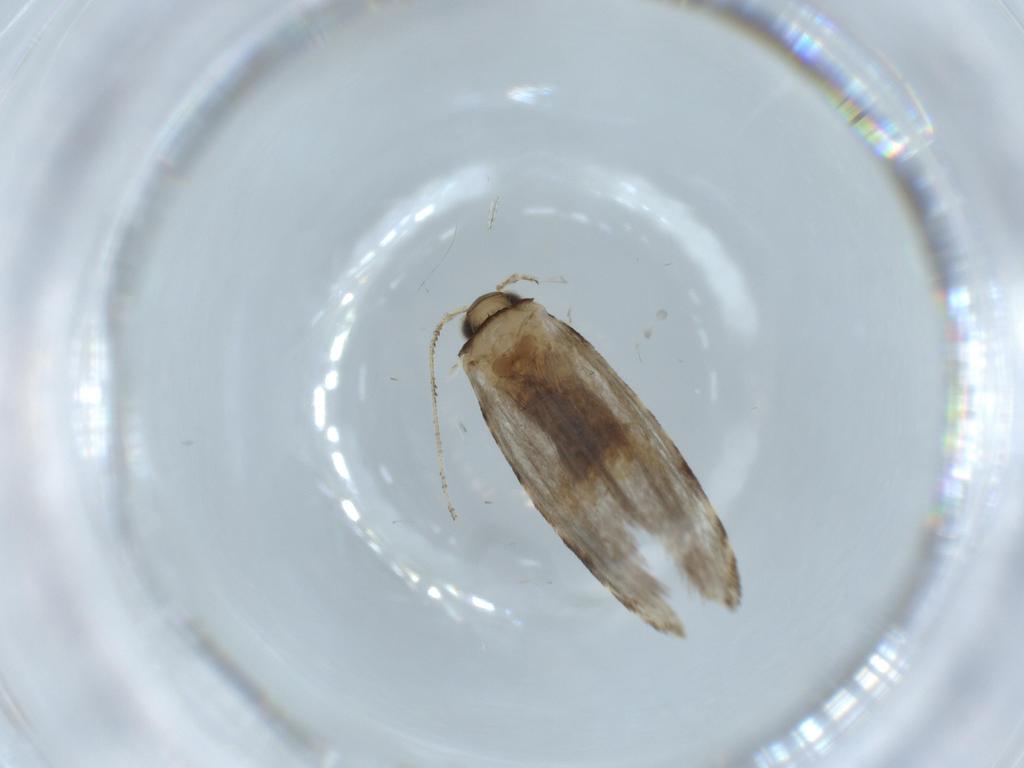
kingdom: Animalia
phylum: Arthropoda
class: Insecta
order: Lepidoptera
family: Tineidae
